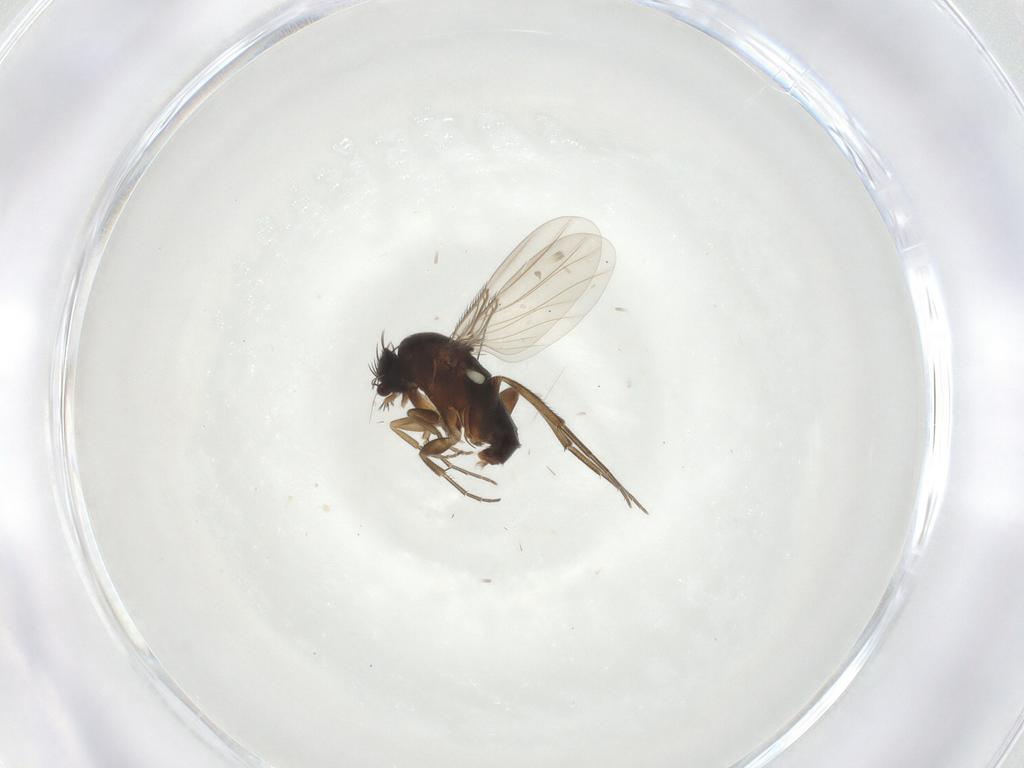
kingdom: Animalia
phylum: Arthropoda
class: Insecta
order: Diptera
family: Phoridae
